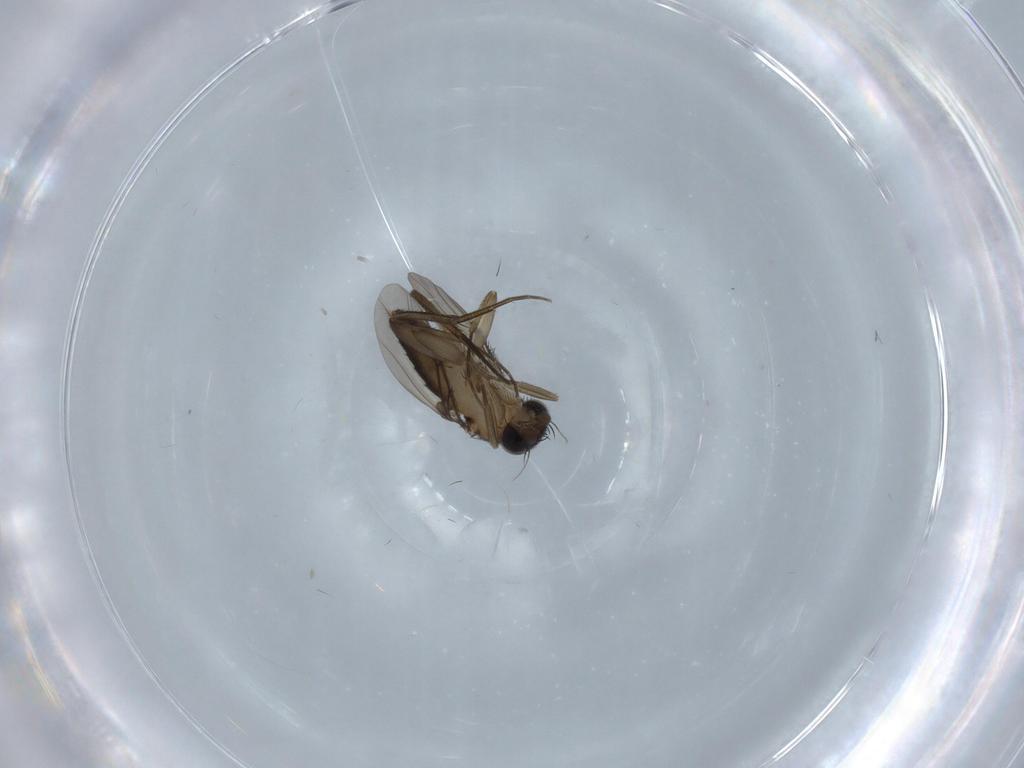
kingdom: Animalia
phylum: Arthropoda
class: Insecta
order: Diptera
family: Phoridae
